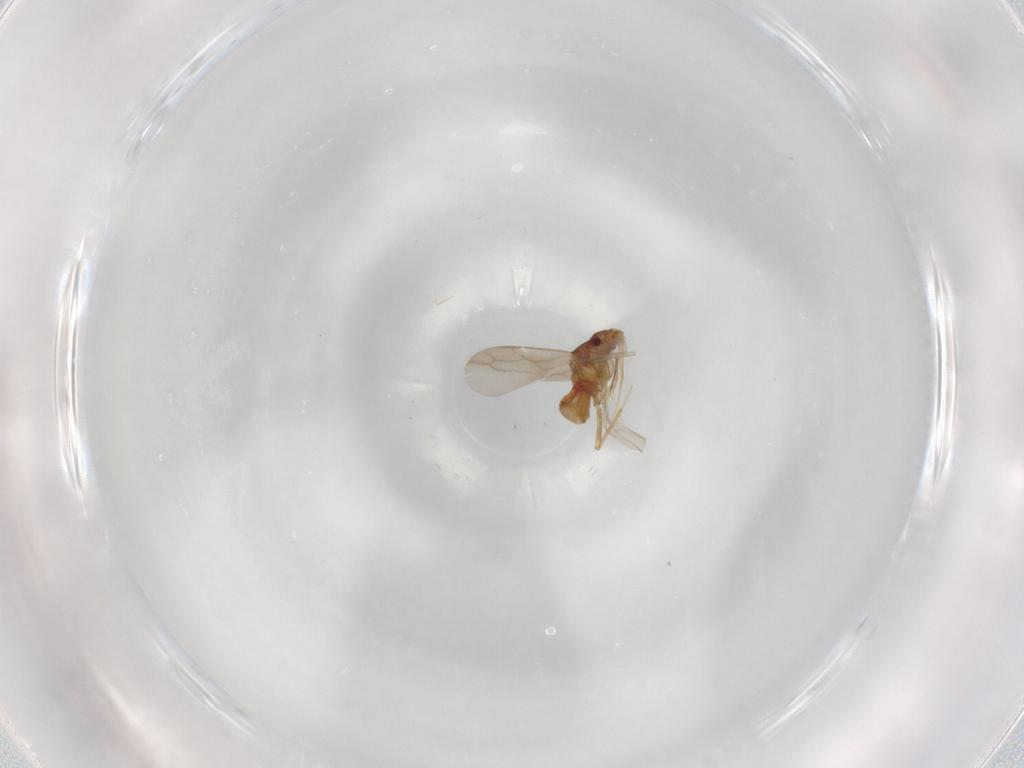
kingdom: Animalia
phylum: Arthropoda
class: Insecta
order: Hemiptera
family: Ceratocombidae
